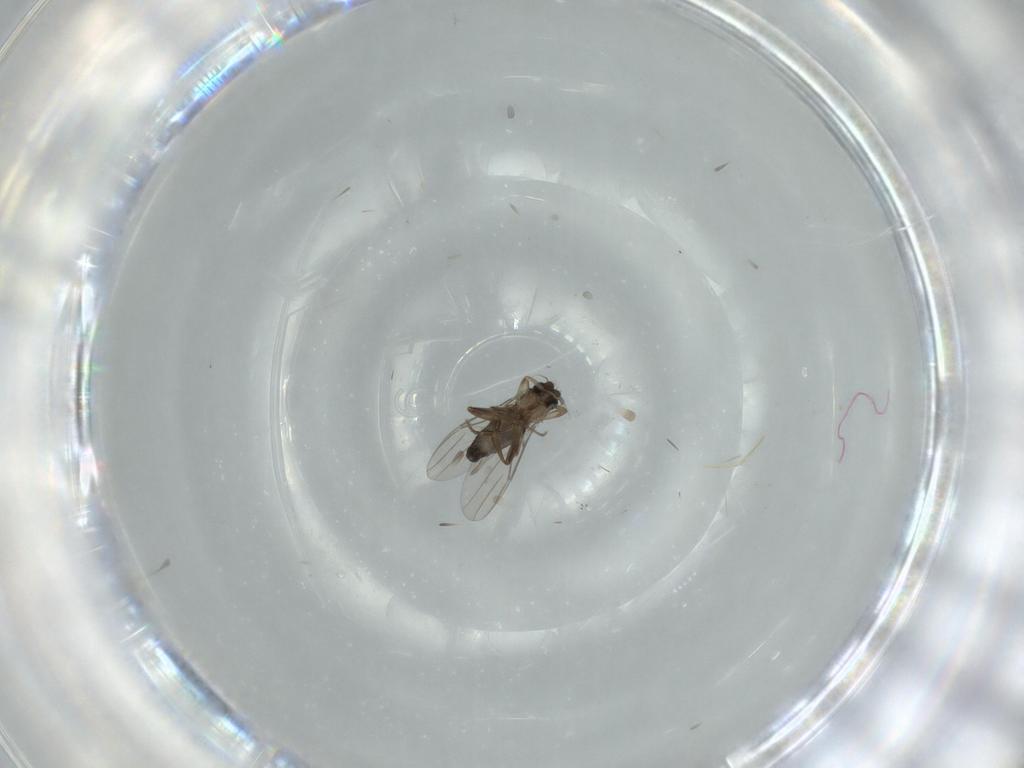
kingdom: Animalia
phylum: Arthropoda
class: Insecta
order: Diptera
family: Phoridae
